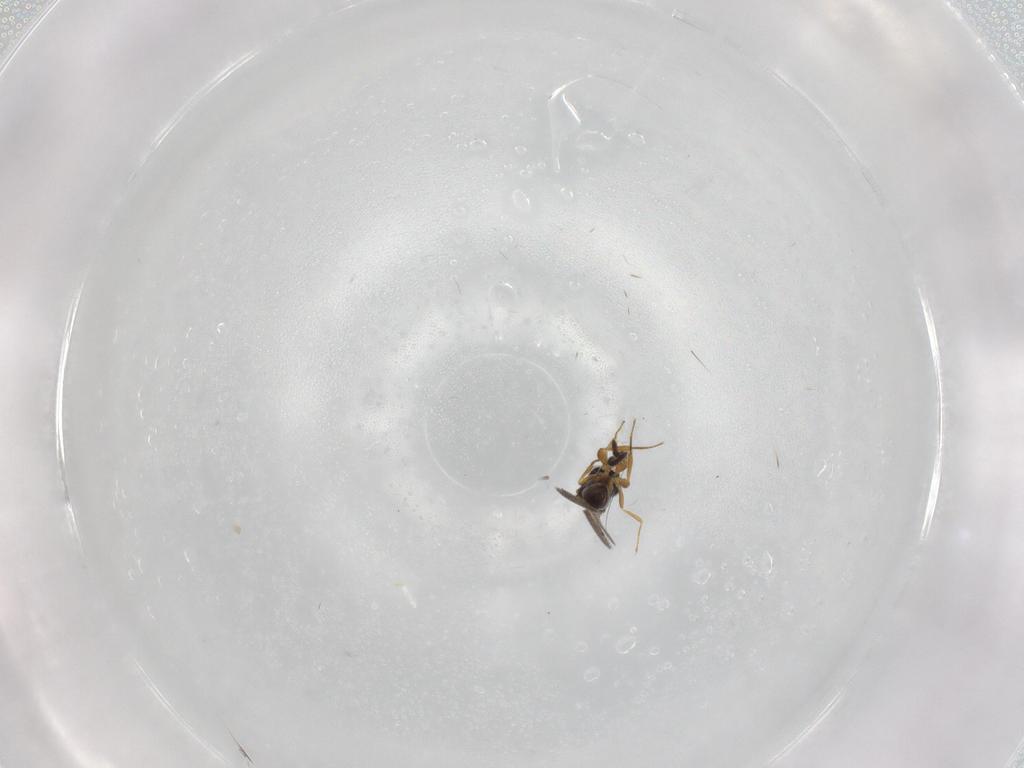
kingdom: Animalia
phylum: Arthropoda
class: Insecta
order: Hymenoptera
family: Ceraphronidae
